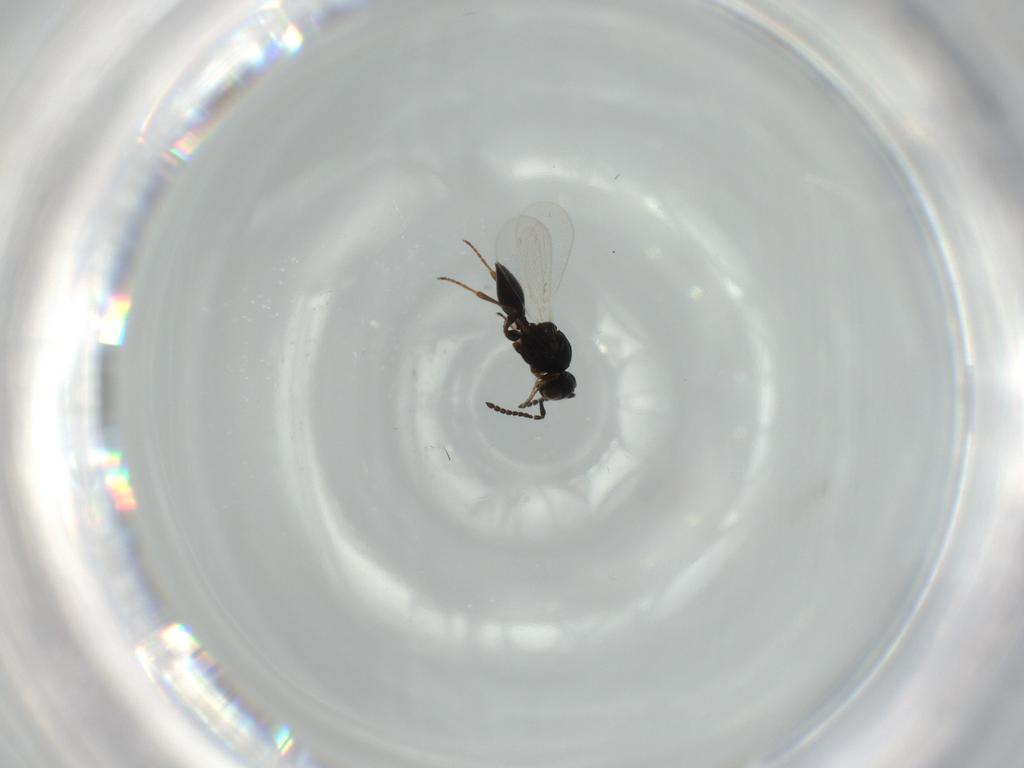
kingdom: Animalia
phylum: Arthropoda
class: Insecta
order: Hymenoptera
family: Platygastridae
